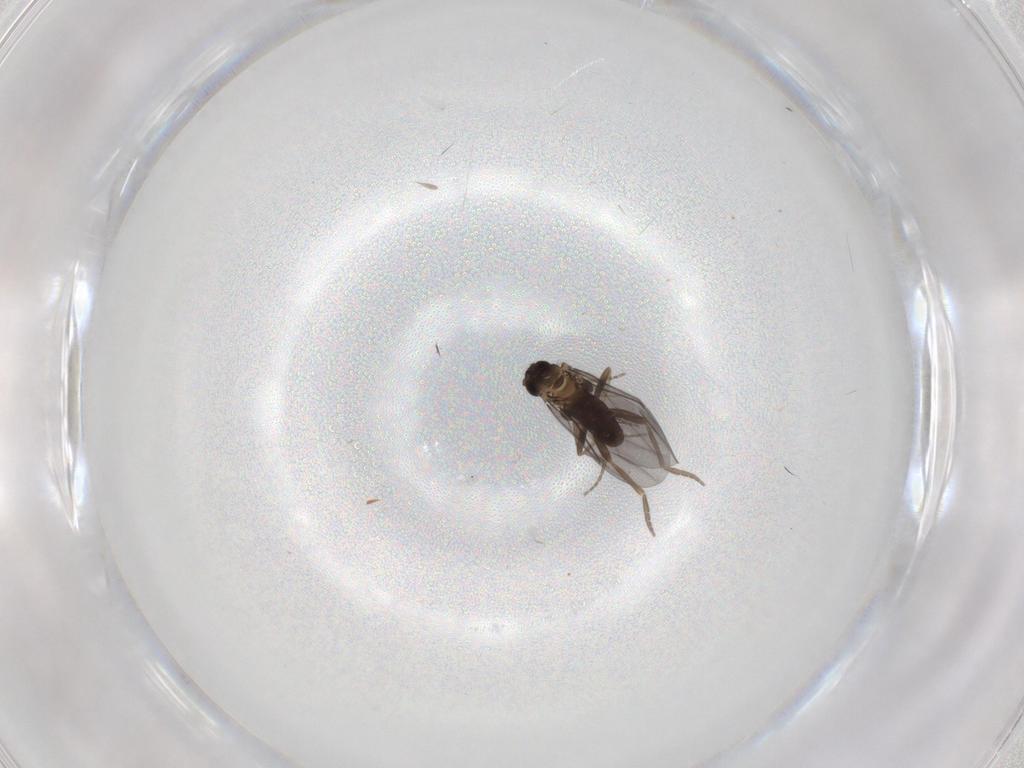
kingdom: Animalia
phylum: Arthropoda
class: Insecta
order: Diptera
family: Phoridae
